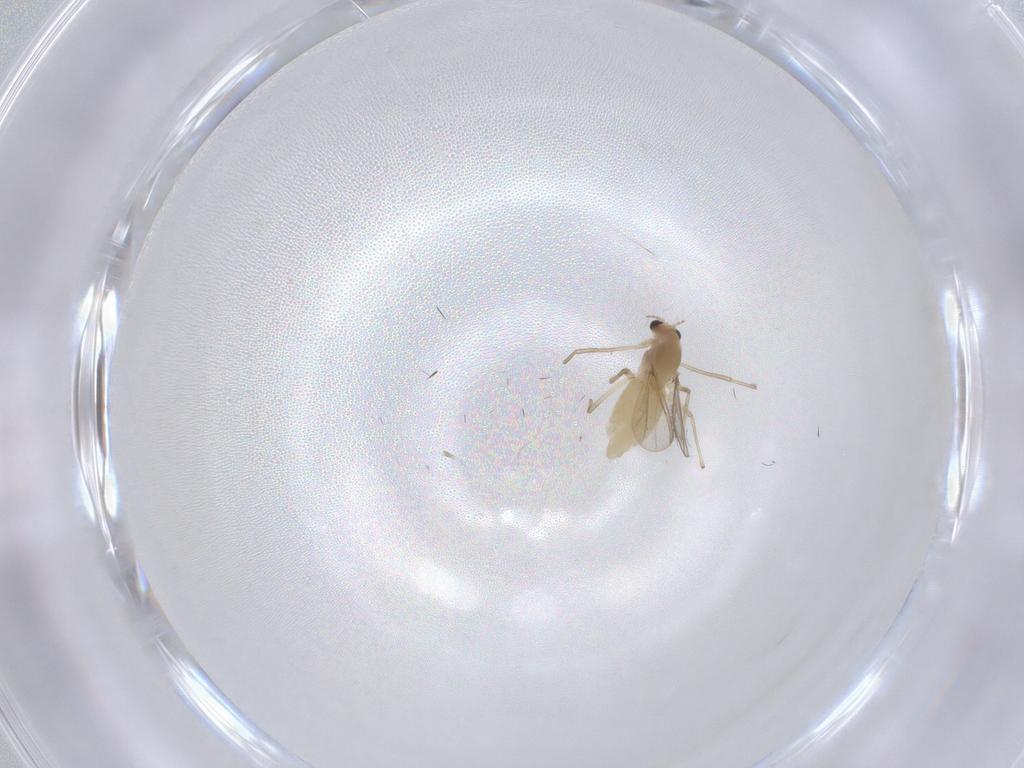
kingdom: Animalia
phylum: Arthropoda
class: Insecta
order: Diptera
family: Chironomidae
